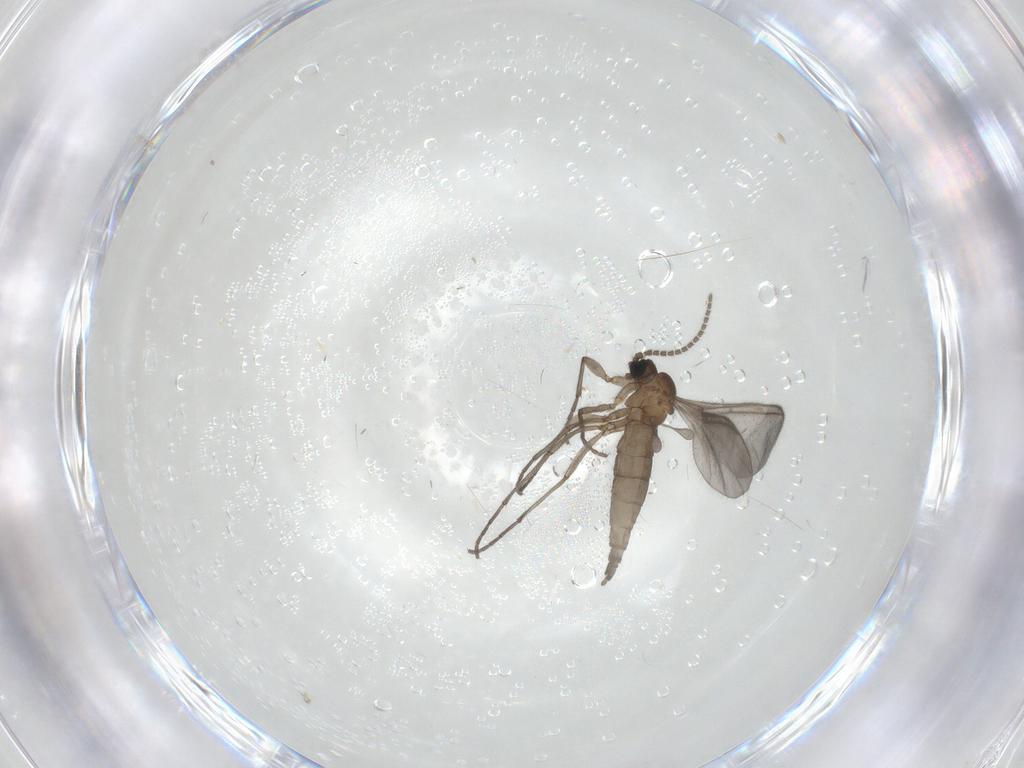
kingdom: Animalia
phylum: Arthropoda
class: Insecta
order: Diptera
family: Sciaridae
